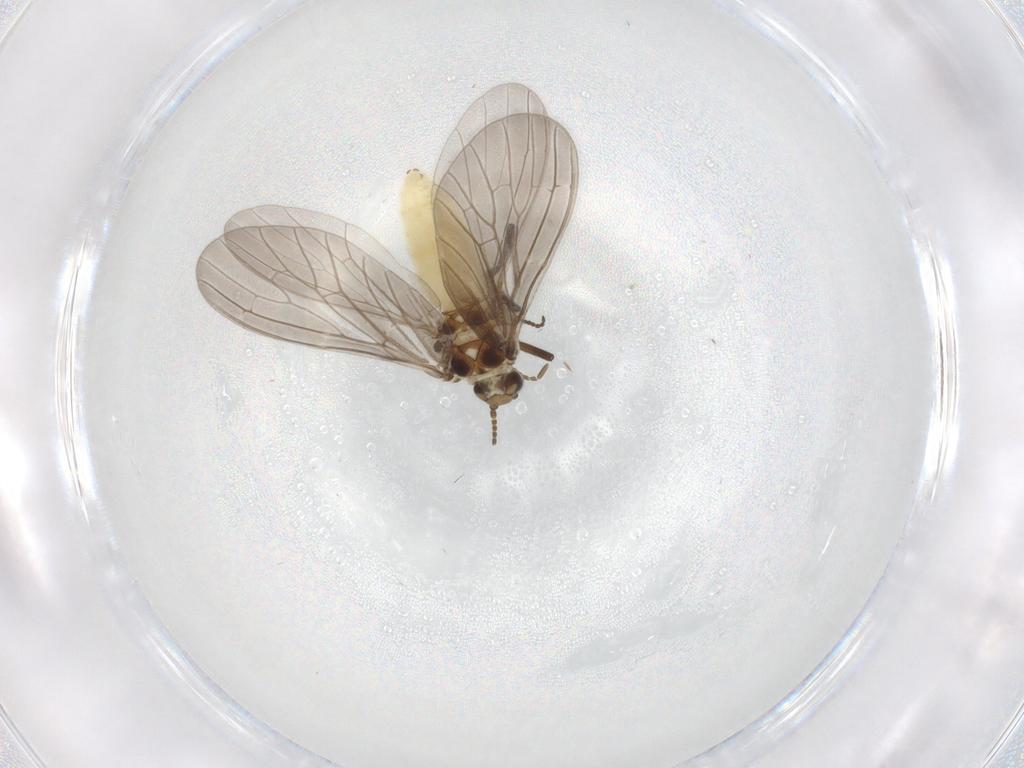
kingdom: Animalia
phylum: Arthropoda
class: Insecta
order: Neuroptera
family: Coniopterygidae
